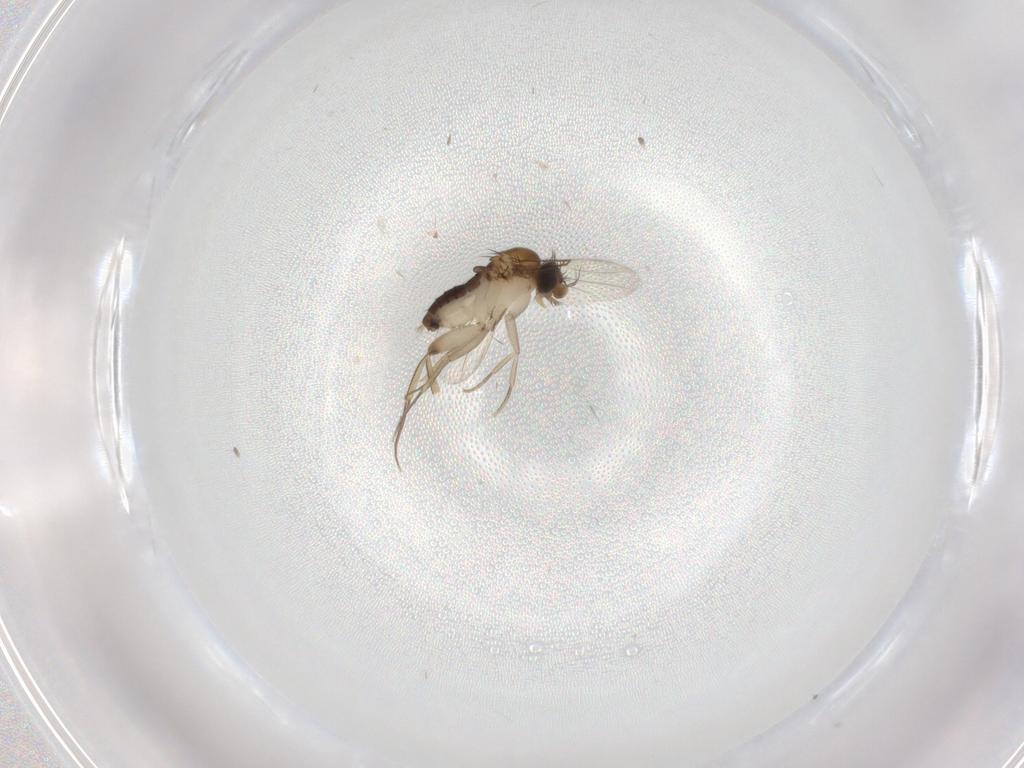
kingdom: Animalia
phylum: Arthropoda
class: Insecta
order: Diptera
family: Phoridae
